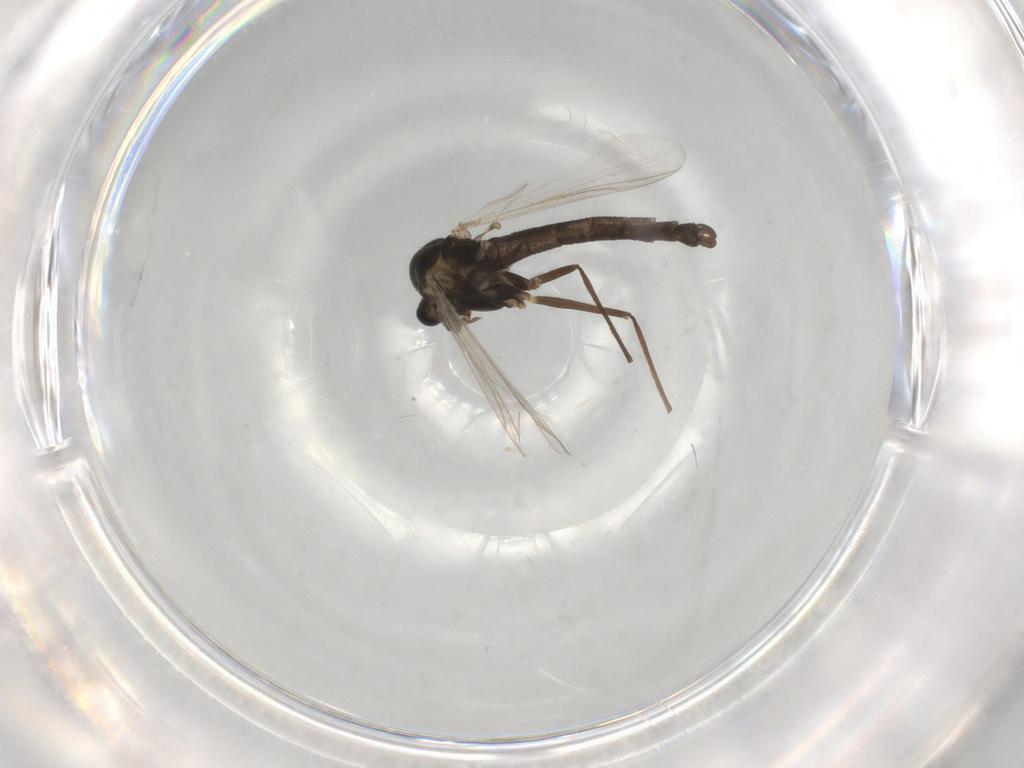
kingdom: Animalia
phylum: Arthropoda
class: Insecta
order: Diptera
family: Chironomidae
